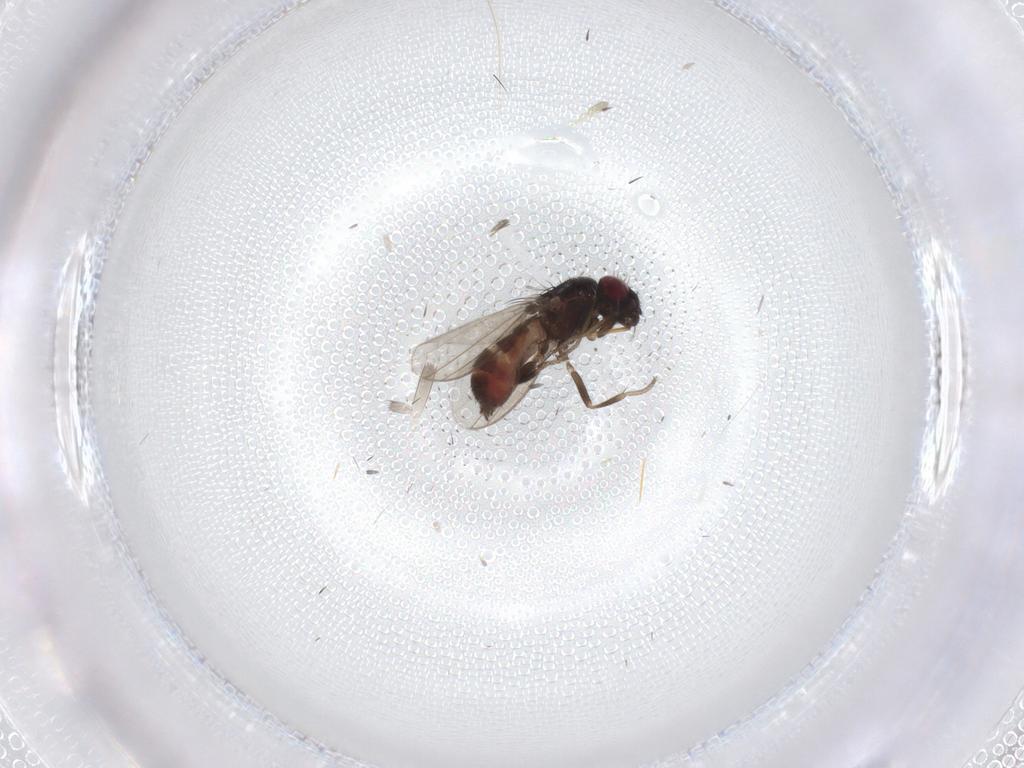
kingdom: Animalia
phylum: Arthropoda
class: Insecta
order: Diptera
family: Milichiidae
